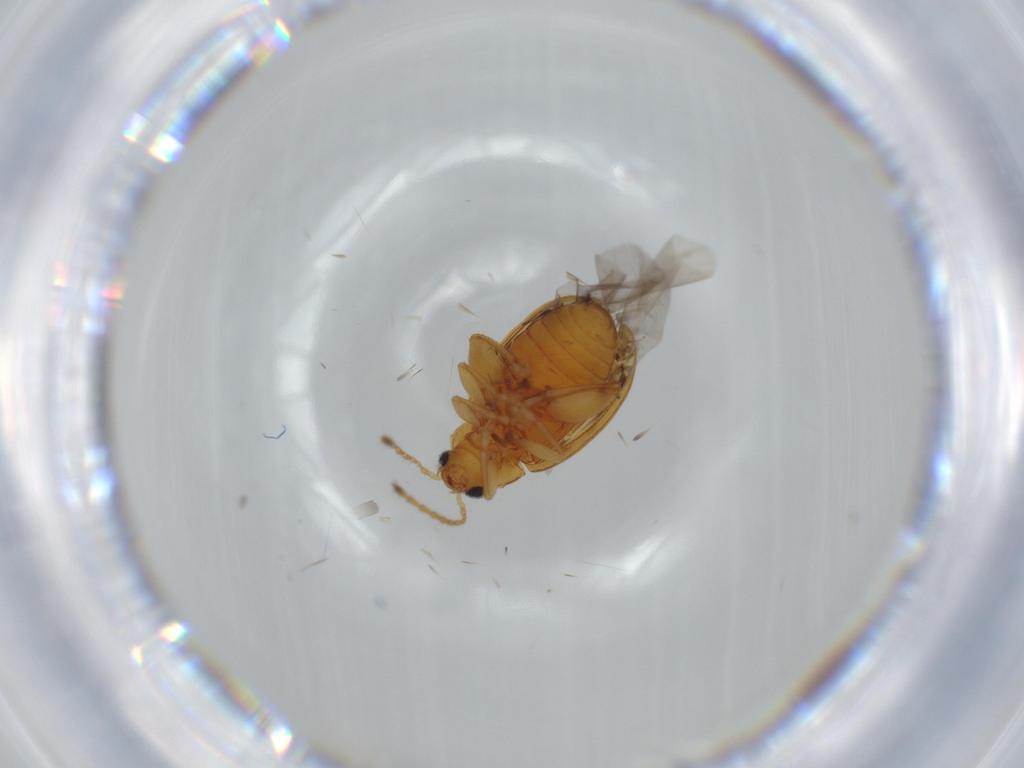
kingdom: Animalia
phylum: Arthropoda
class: Insecta
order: Coleoptera
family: Chrysomelidae
